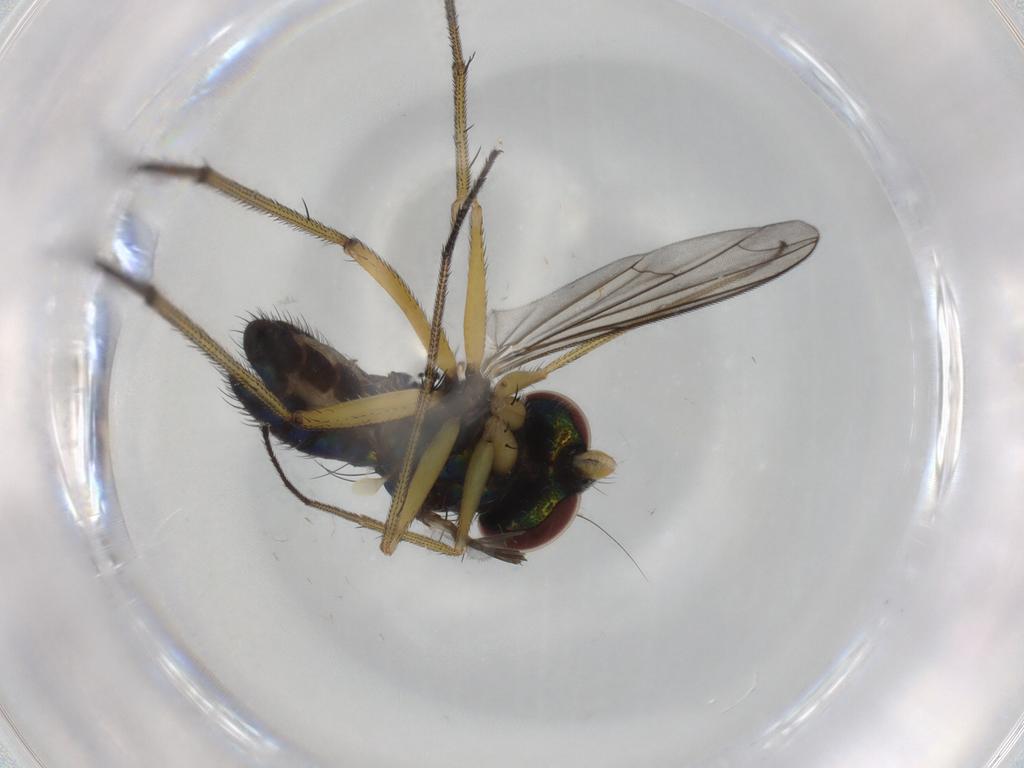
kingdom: Animalia
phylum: Arthropoda
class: Insecta
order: Diptera
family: Dolichopodidae
